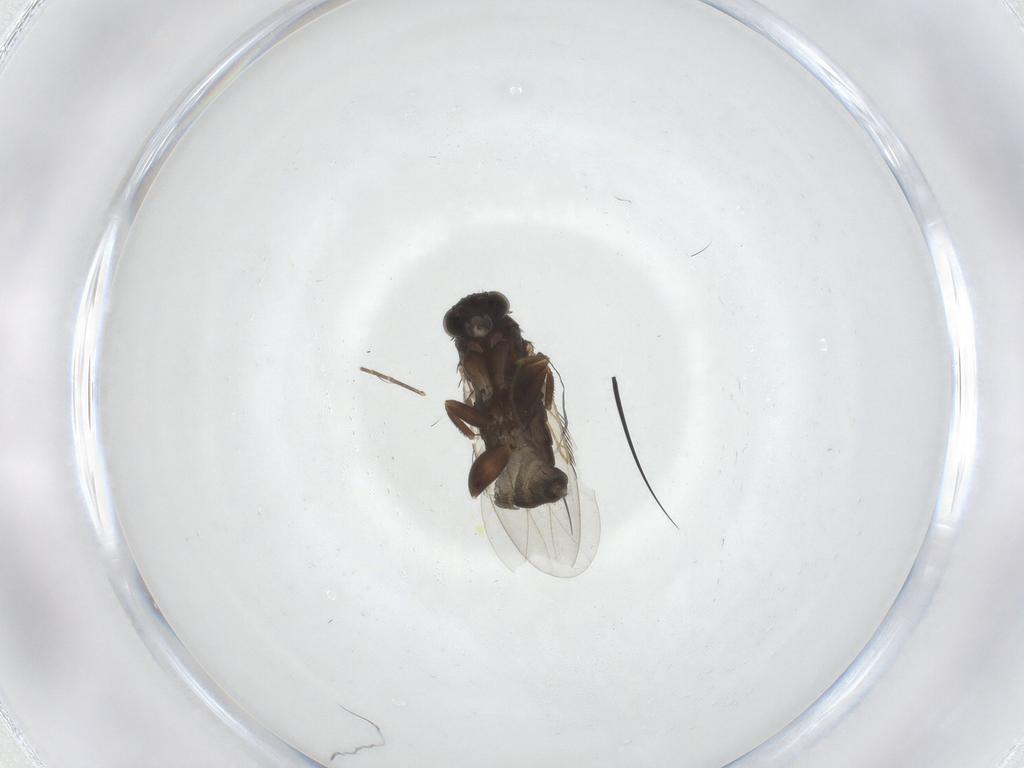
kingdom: Animalia
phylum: Arthropoda
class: Insecta
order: Diptera
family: Phoridae
